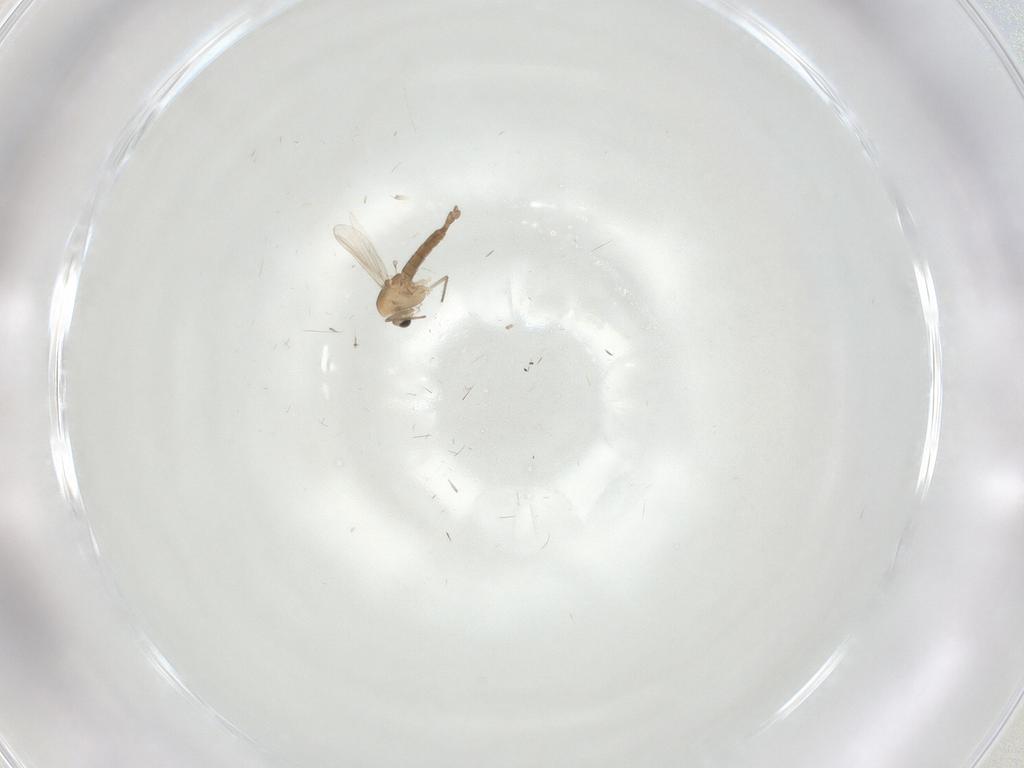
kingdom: Animalia
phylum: Arthropoda
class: Insecta
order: Diptera
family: Chironomidae
